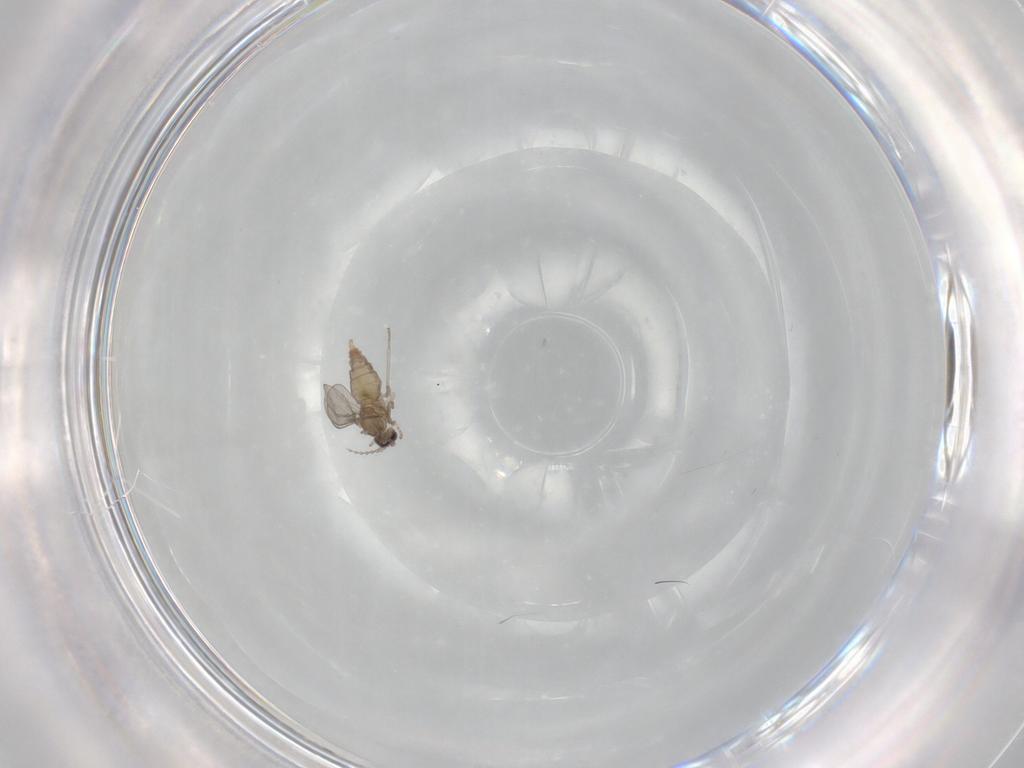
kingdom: Animalia
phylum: Arthropoda
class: Insecta
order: Diptera
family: Cecidomyiidae
